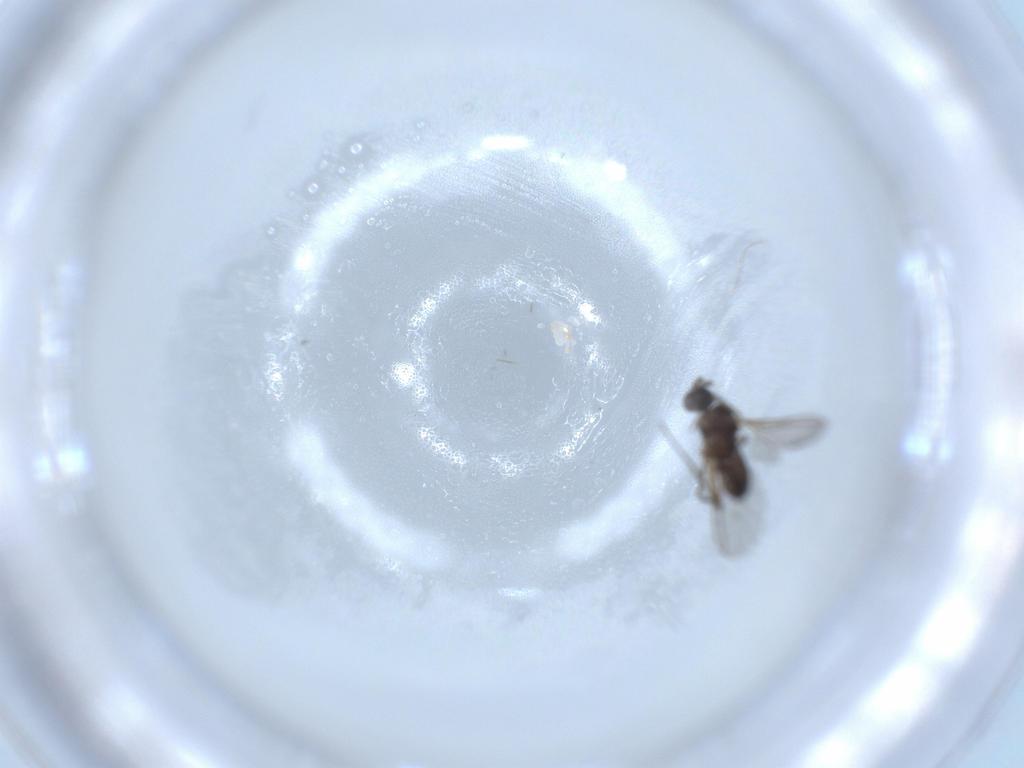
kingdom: Animalia
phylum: Arthropoda
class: Insecta
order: Diptera
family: Sciaridae
